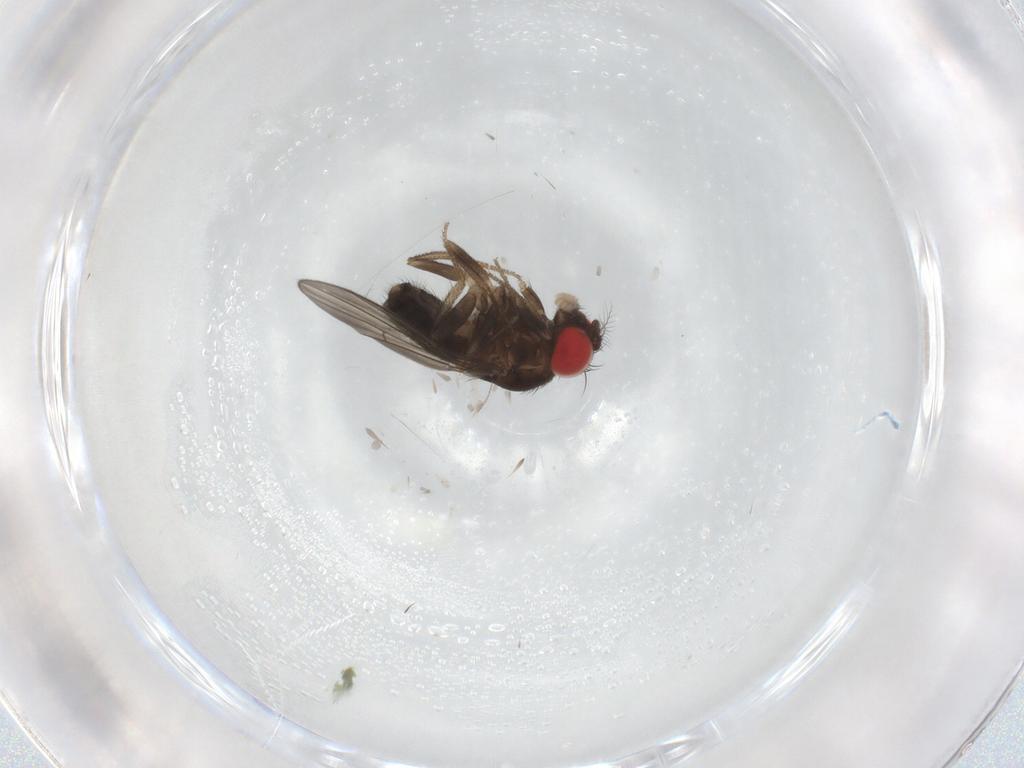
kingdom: Animalia
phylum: Arthropoda
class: Insecta
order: Diptera
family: Drosophilidae
